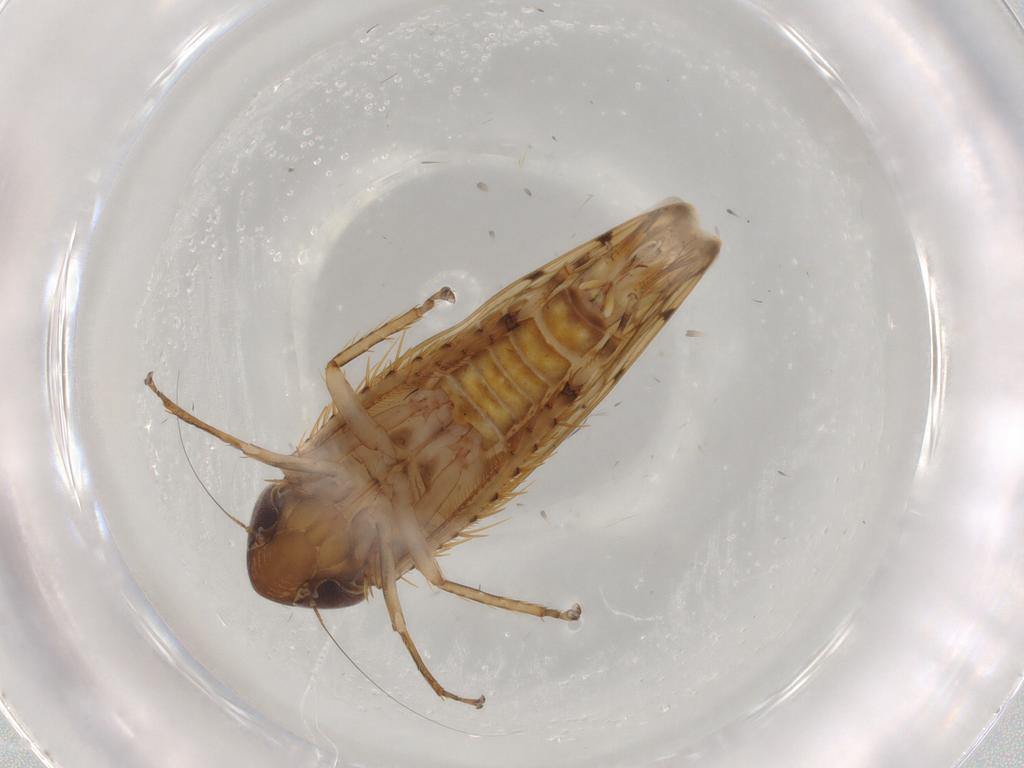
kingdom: Animalia
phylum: Arthropoda
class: Insecta
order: Hemiptera
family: Cicadellidae
